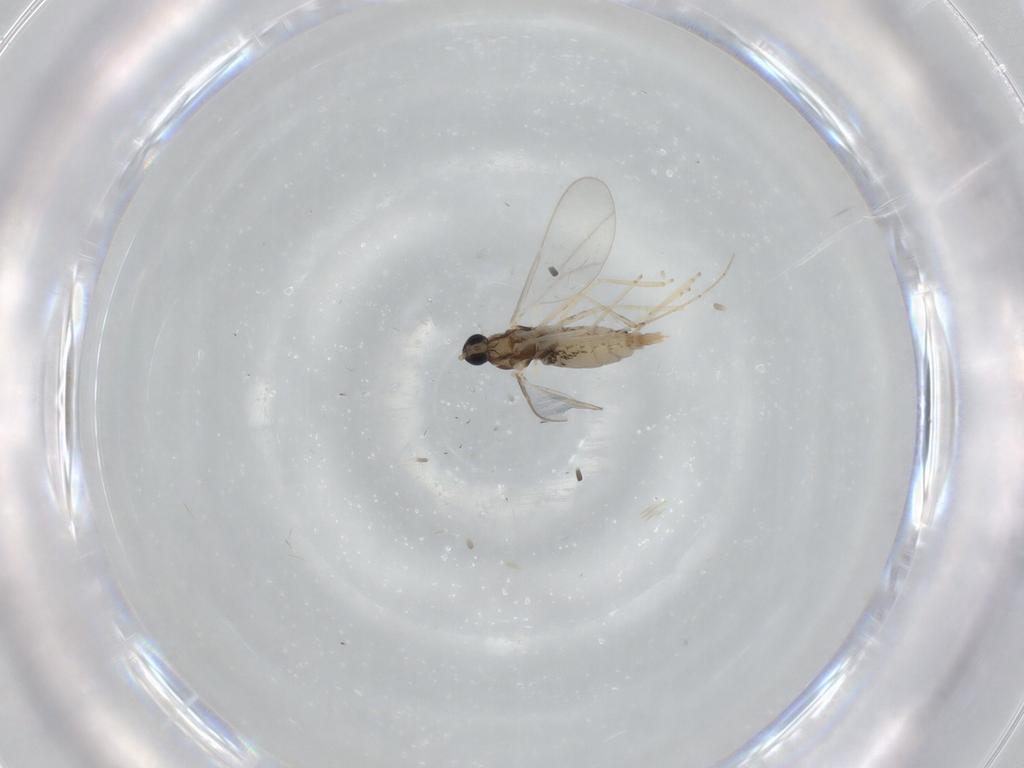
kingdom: Animalia
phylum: Arthropoda
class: Insecta
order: Diptera
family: Cecidomyiidae
